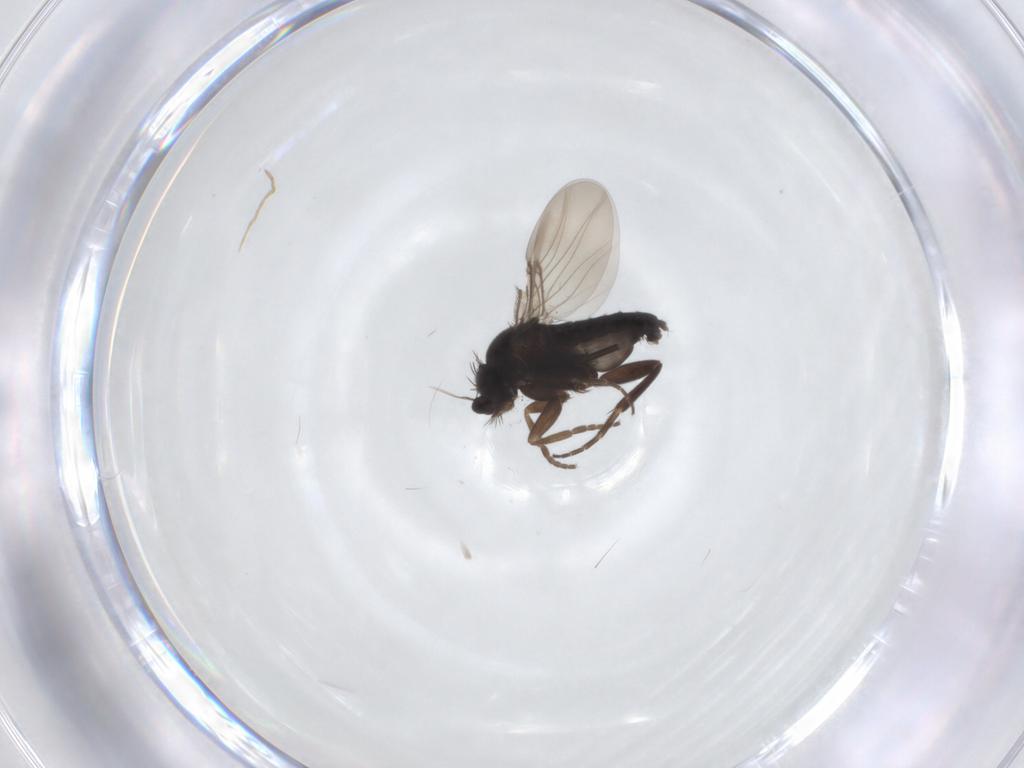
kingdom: Animalia
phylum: Arthropoda
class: Insecta
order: Diptera
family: Phoridae
